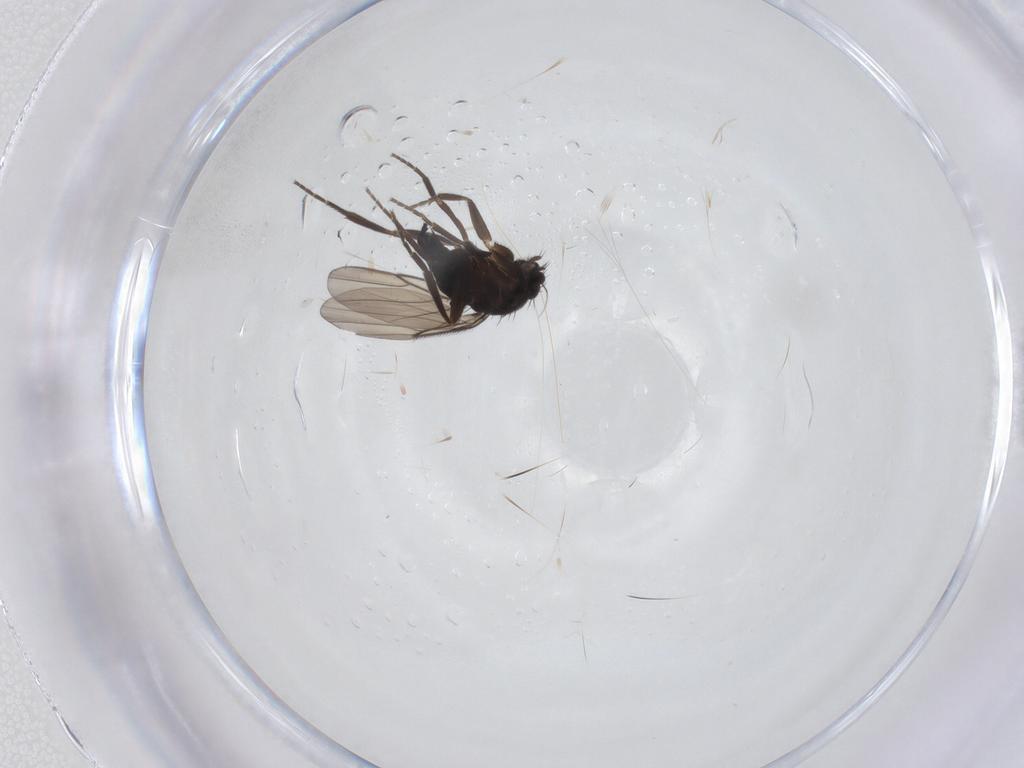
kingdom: Animalia
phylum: Arthropoda
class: Insecta
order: Diptera
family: Phoridae
